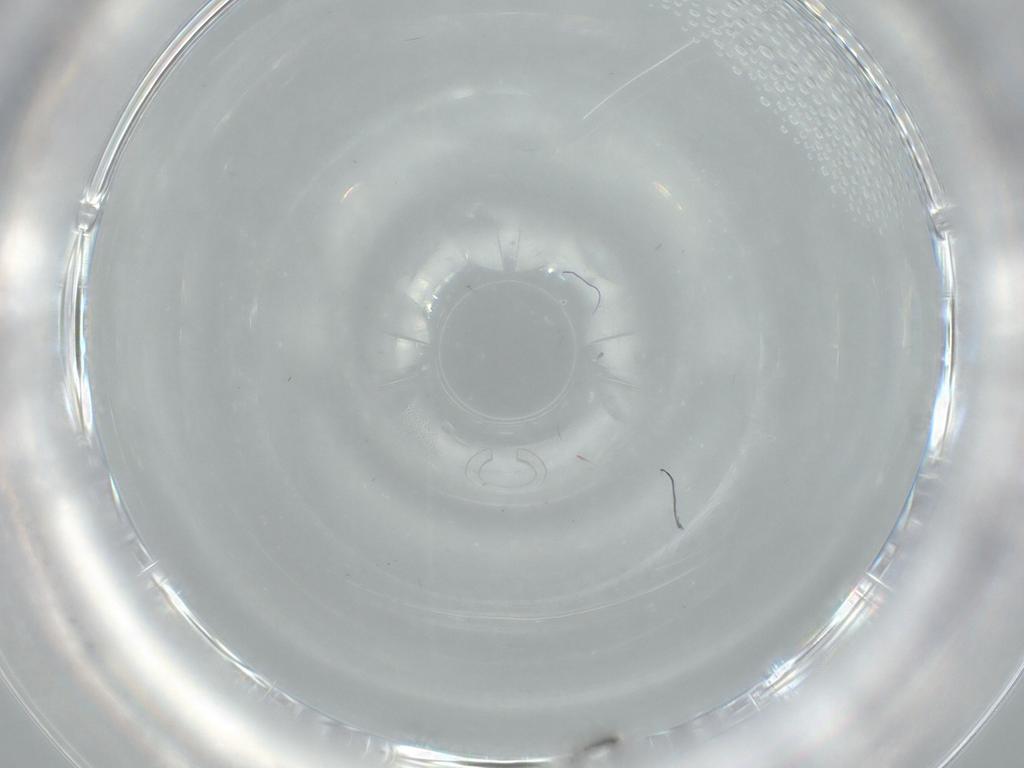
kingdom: Animalia
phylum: Arthropoda
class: Insecta
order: Diptera
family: Cecidomyiidae
